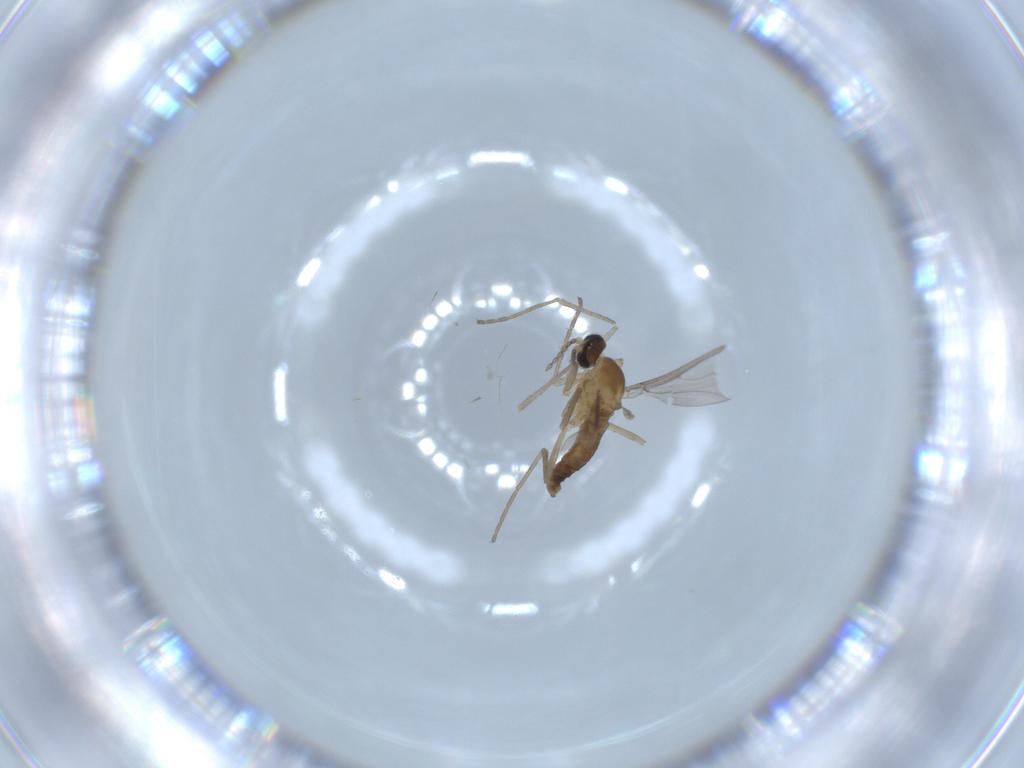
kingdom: Animalia
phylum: Arthropoda
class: Insecta
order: Diptera
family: Cecidomyiidae
